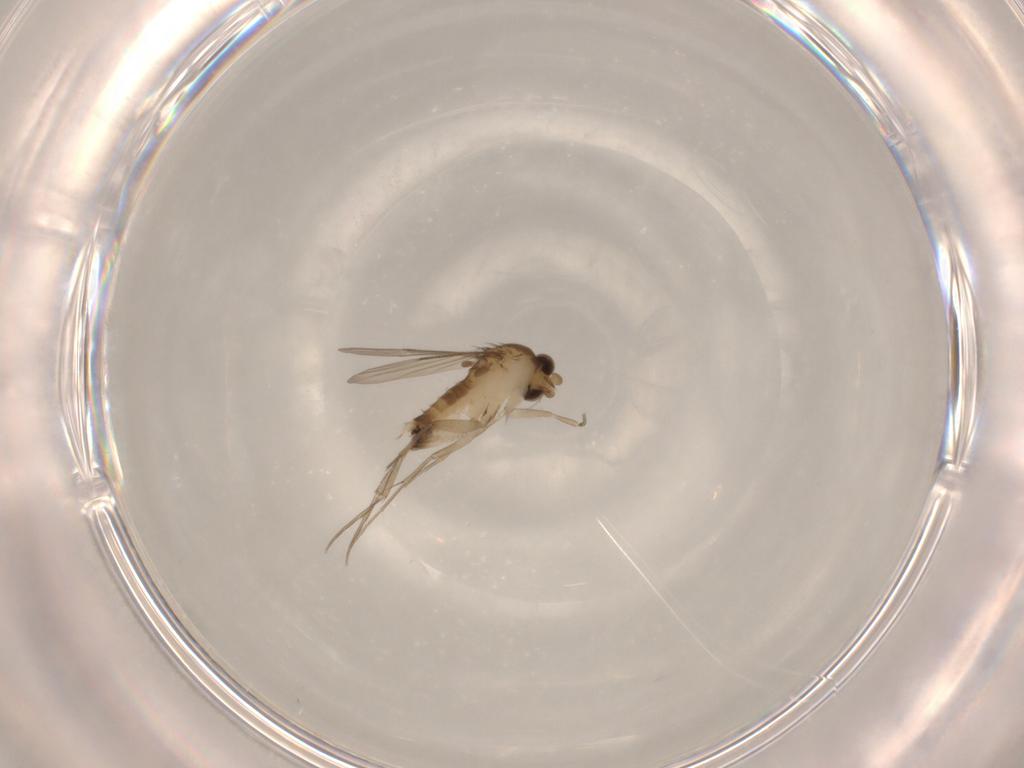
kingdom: Animalia
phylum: Arthropoda
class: Insecta
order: Diptera
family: Phoridae
